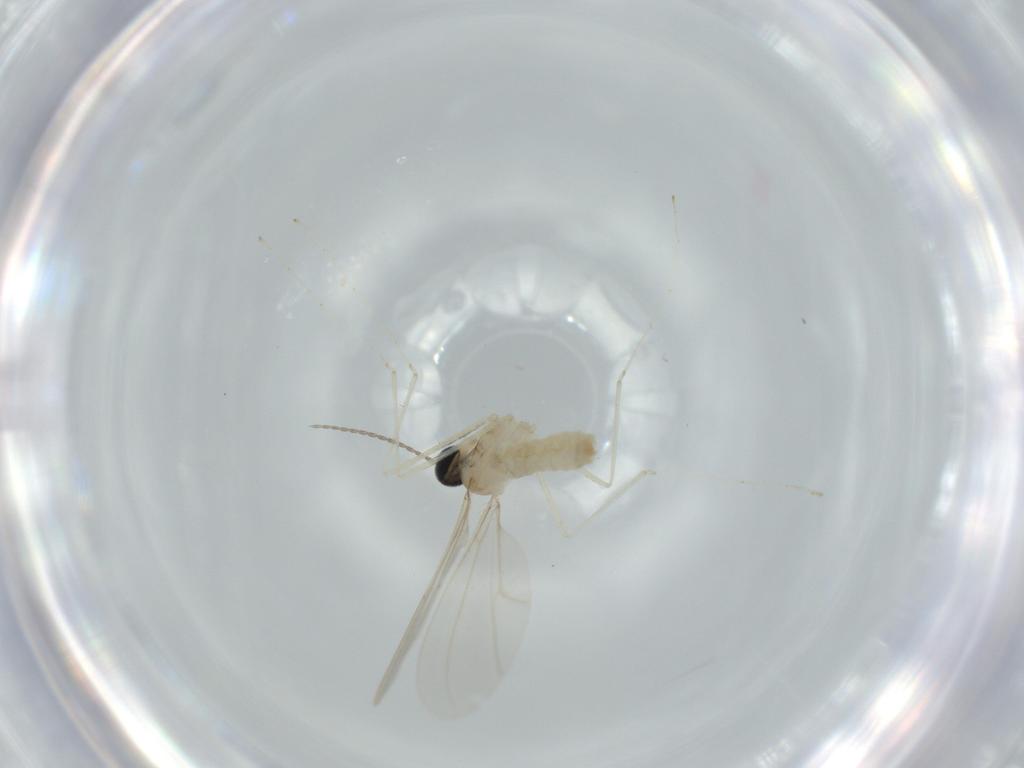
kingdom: Animalia
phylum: Arthropoda
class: Insecta
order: Diptera
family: Cecidomyiidae
